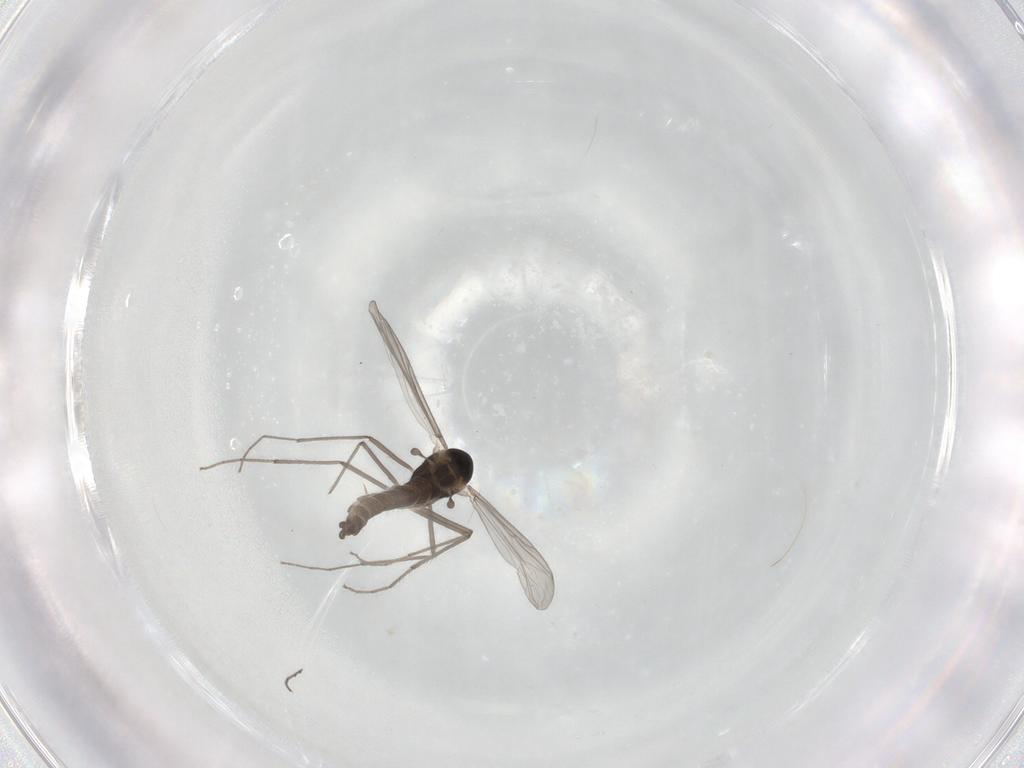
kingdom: Animalia
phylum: Arthropoda
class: Insecta
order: Diptera
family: Chironomidae
